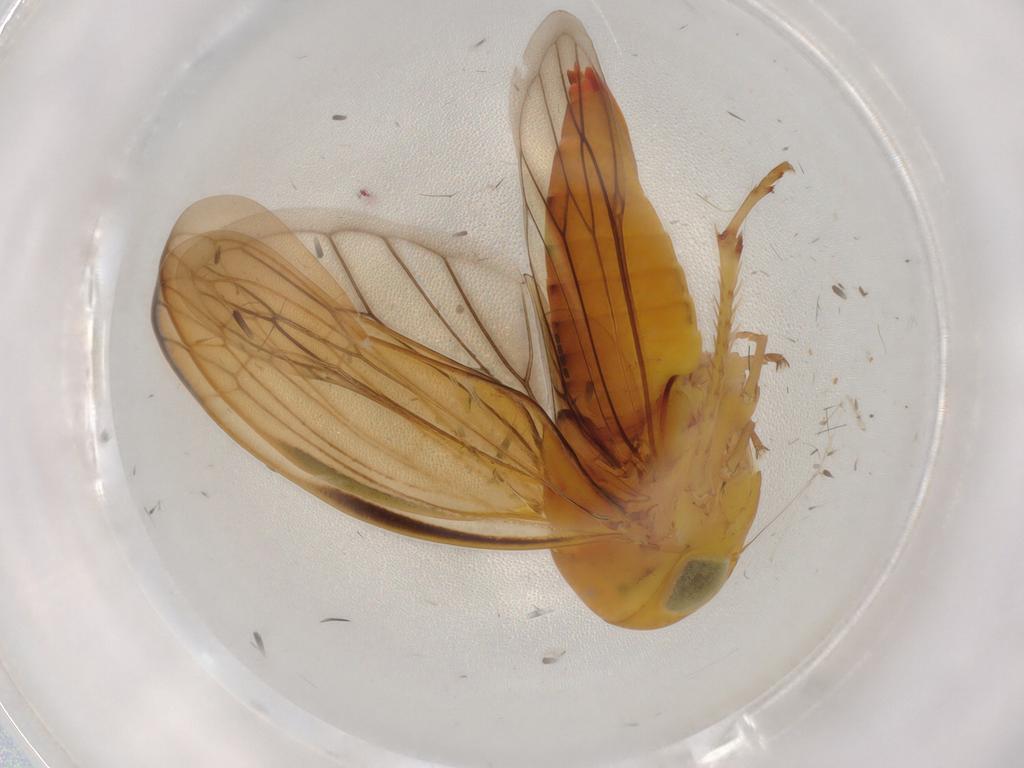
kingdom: Animalia
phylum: Arthropoda
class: Insecta
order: Hemiptera
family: Cicadellidae
